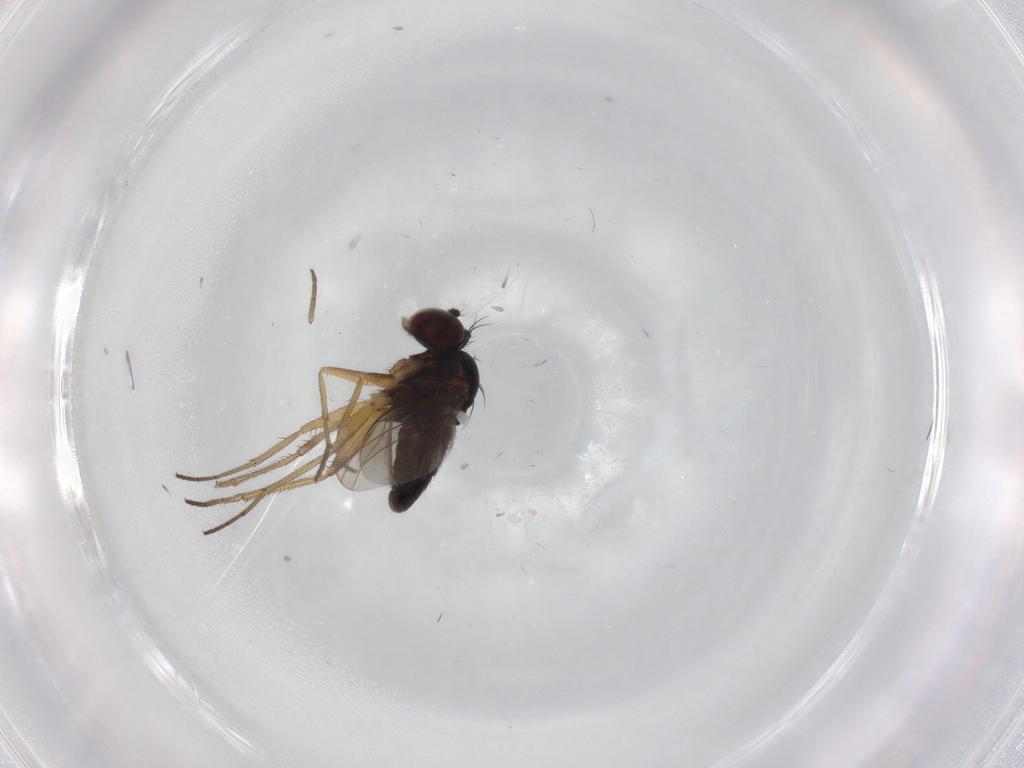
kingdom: Animalia
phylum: Arthropoda
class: Insecta
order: Diptera
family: Dolichopodidae
